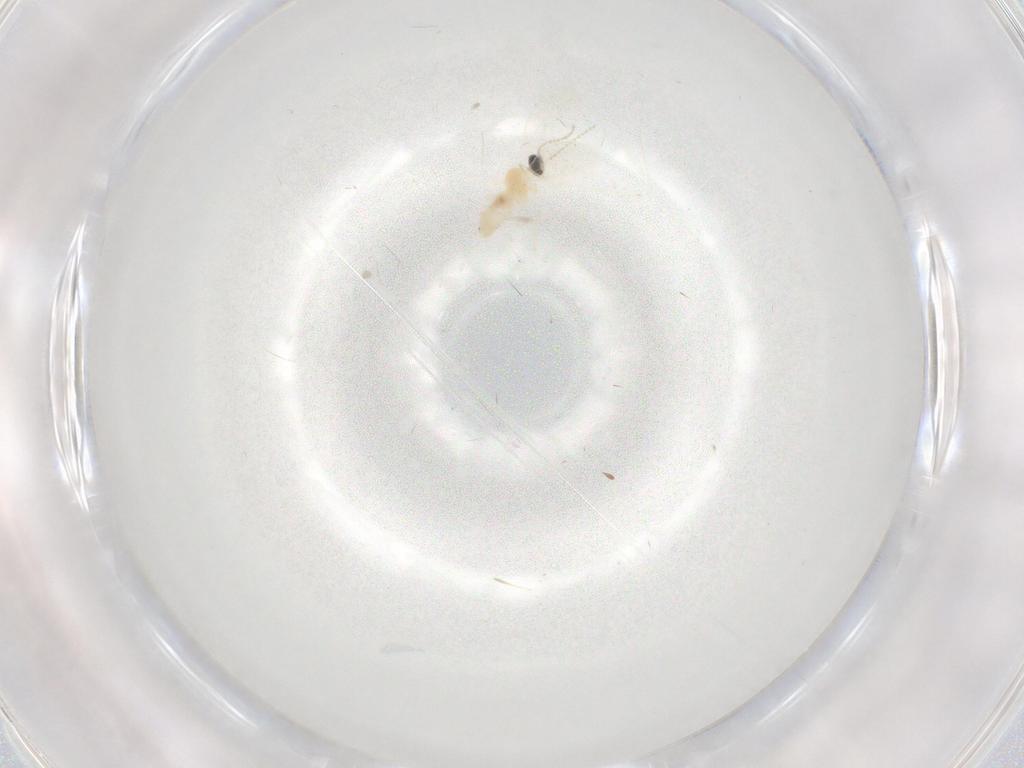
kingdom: Animalia
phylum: Arthropoda
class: Insecta
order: Diptera
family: Cecidomyiidae
